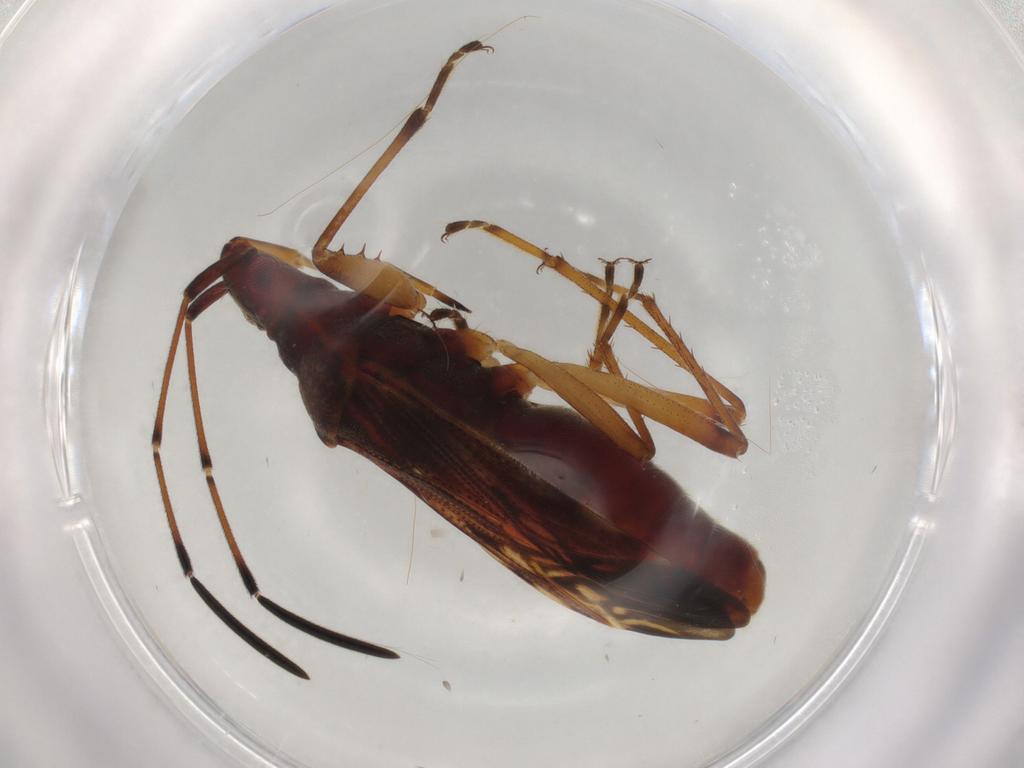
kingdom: Animalia
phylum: Arthropoda
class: Insecta
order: Hemiptera
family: Rhyparochromidae
